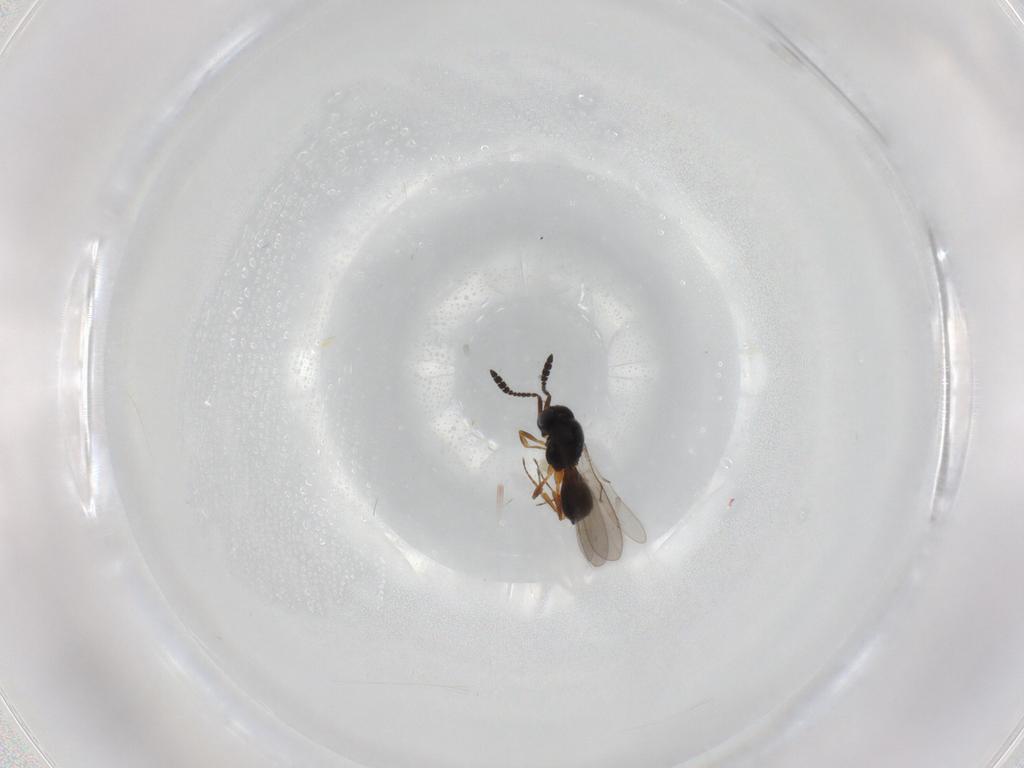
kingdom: Animalia
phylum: Arthropoda
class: Insecta
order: Hymenoptera
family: Scelionidae
